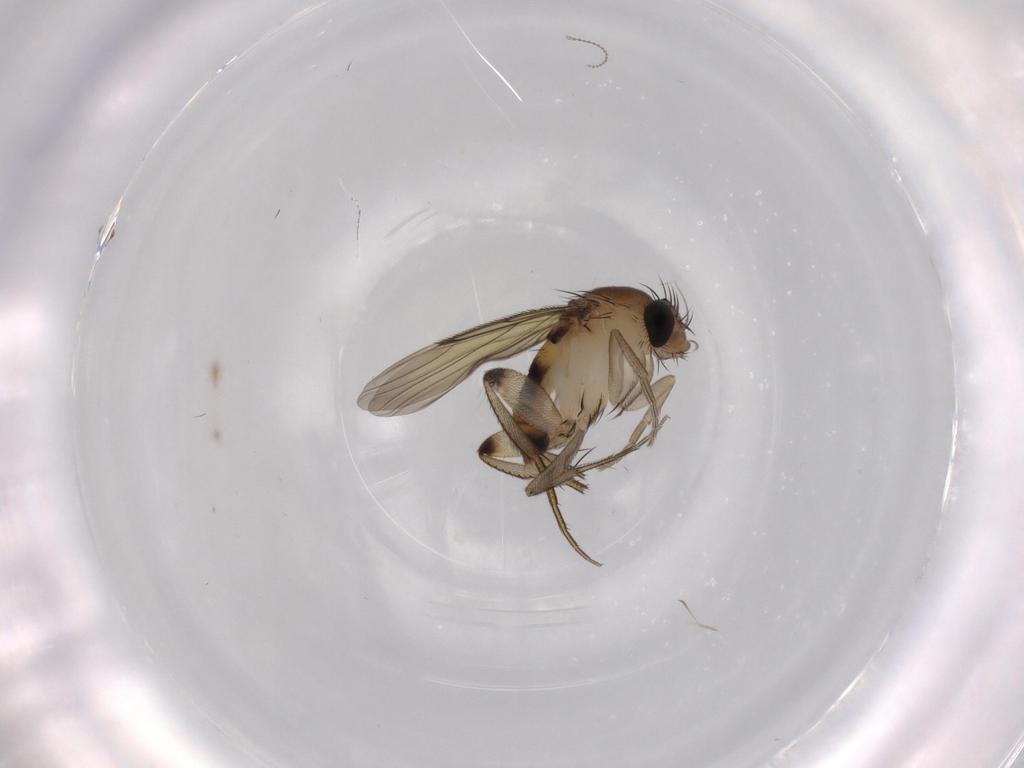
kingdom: Animalia
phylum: Arthropoda
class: Insecta
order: Diptera
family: Phoridae
